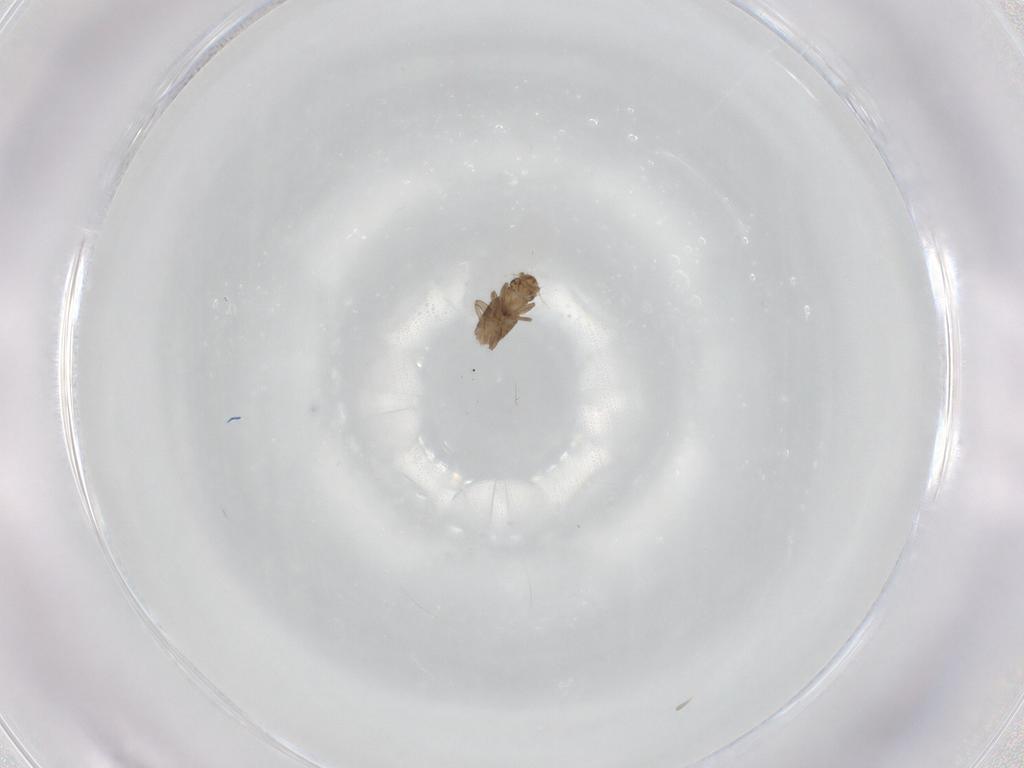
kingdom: Animalia
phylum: Arthropoda
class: Insecta
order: Diptera
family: Cecidomyiidae
